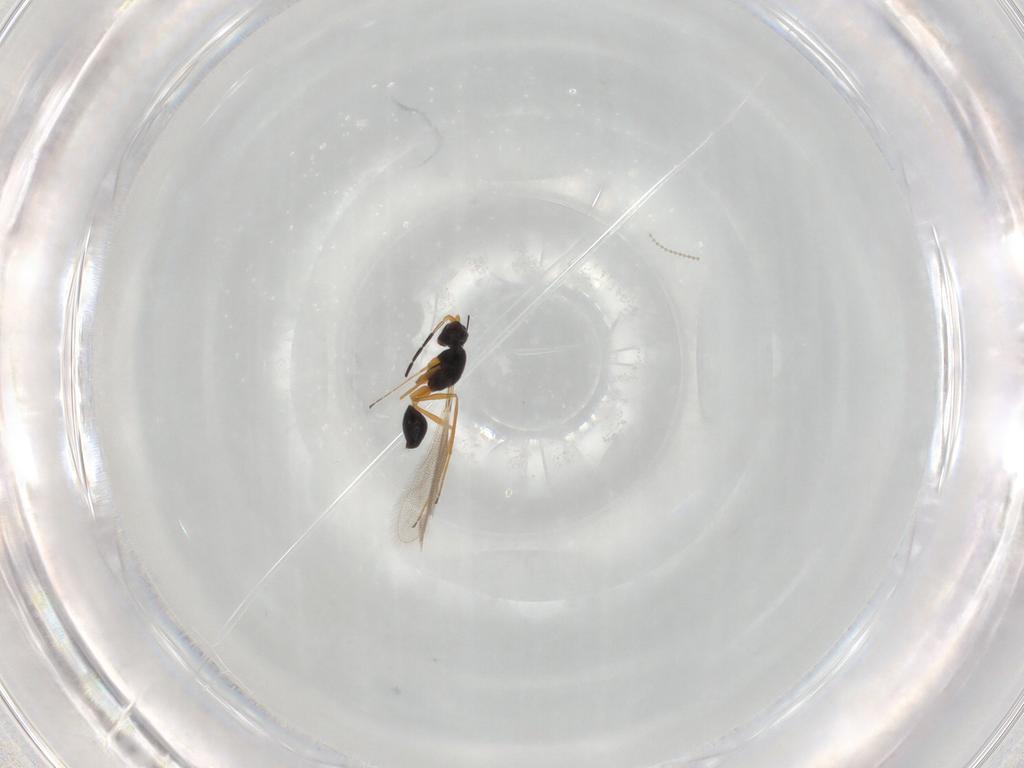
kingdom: Animalia
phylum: Arthropoda
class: Insecta
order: Hymenoptera
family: Mymaridae
